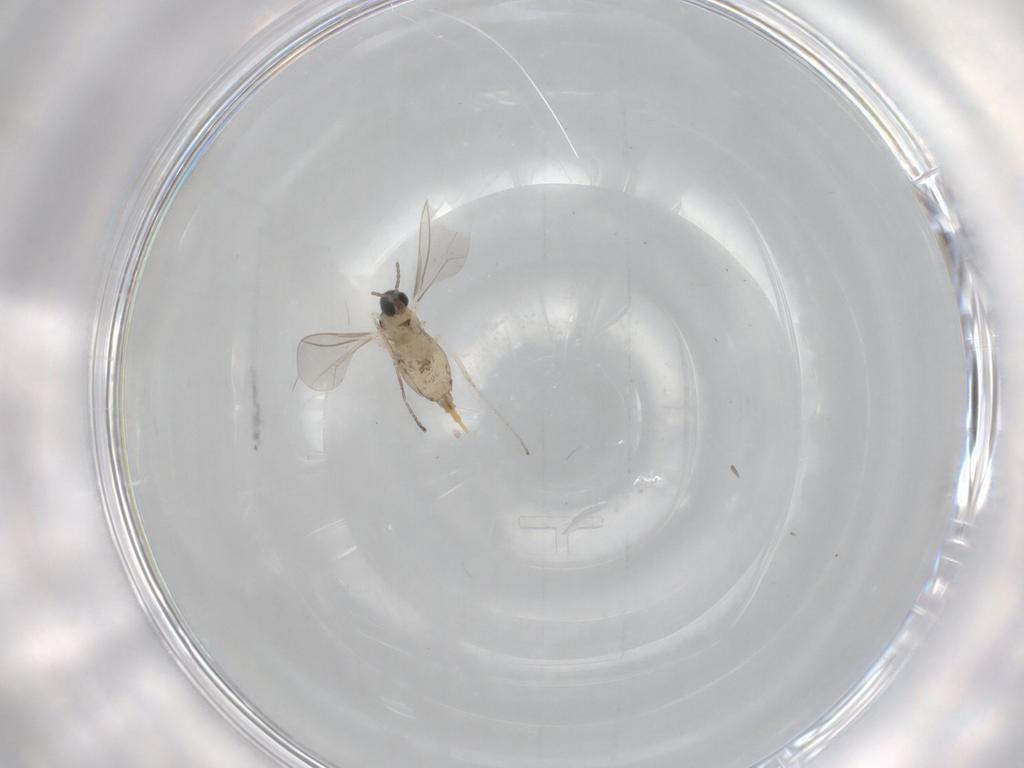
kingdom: Animalia
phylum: Arthropoda
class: Insecta
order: Diptera
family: Cecidomyiidae
